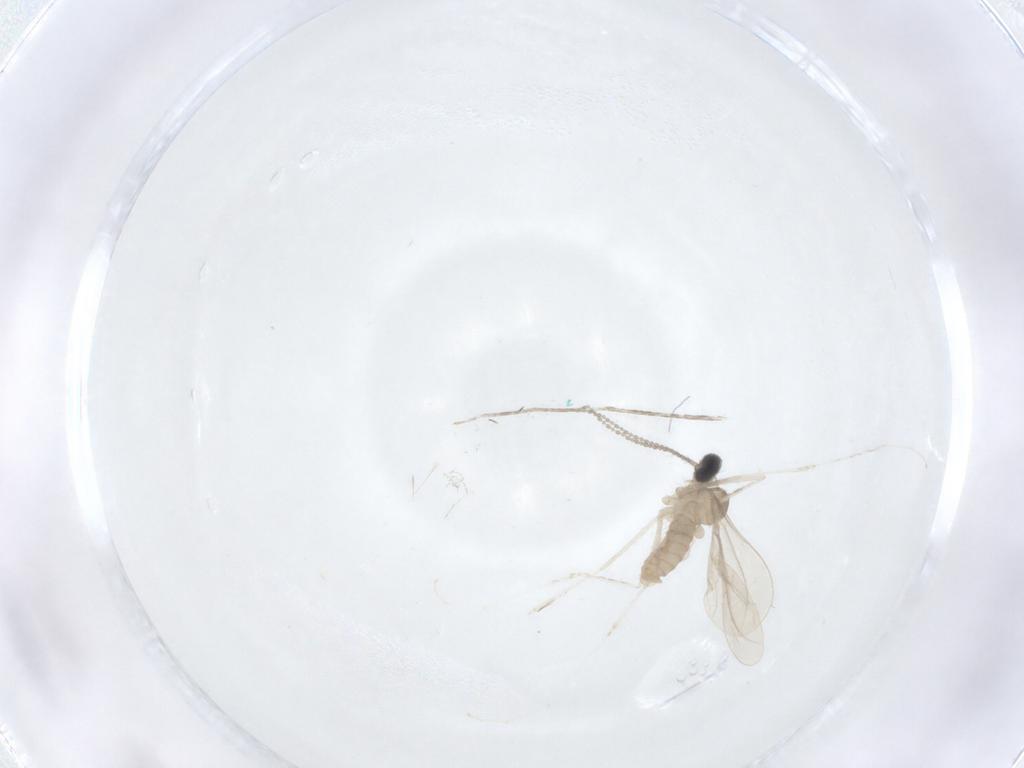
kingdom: Animalia
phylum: Arthropoda
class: Insecta
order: Diptera
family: Cecidomyiidae
